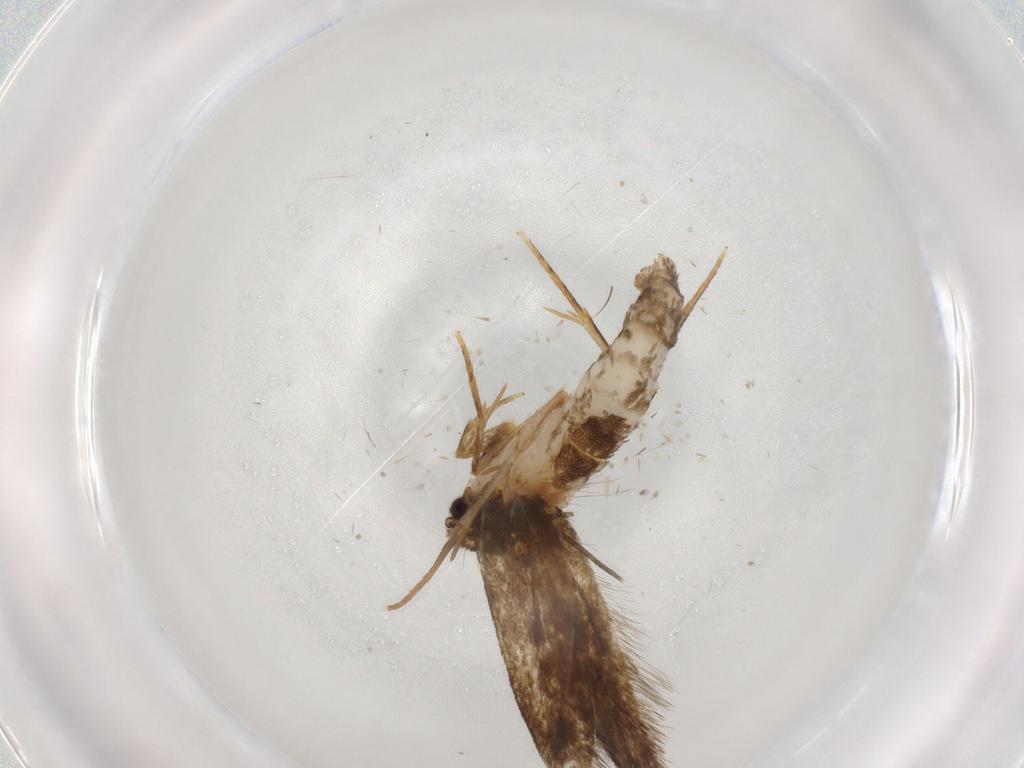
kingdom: Animalia
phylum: Arthropoda
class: Insecta
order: Lepidoptera
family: Tineidae
